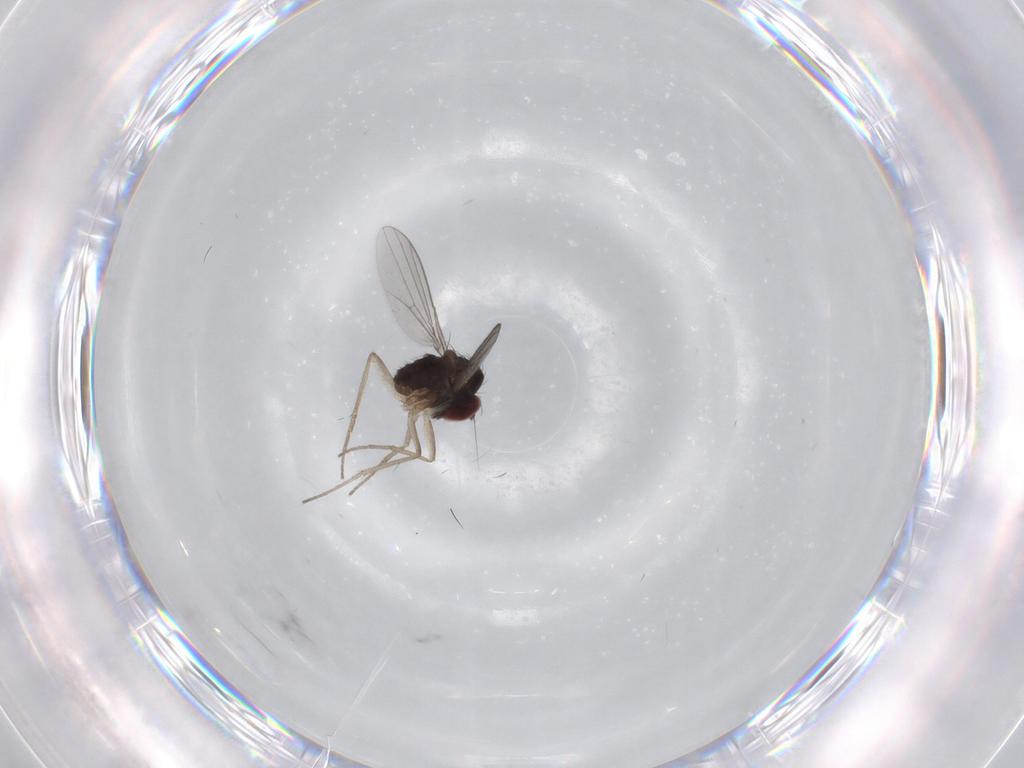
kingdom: Animalia
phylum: Arthropoda
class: Insecta
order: Diptera
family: Dolichopodidae
